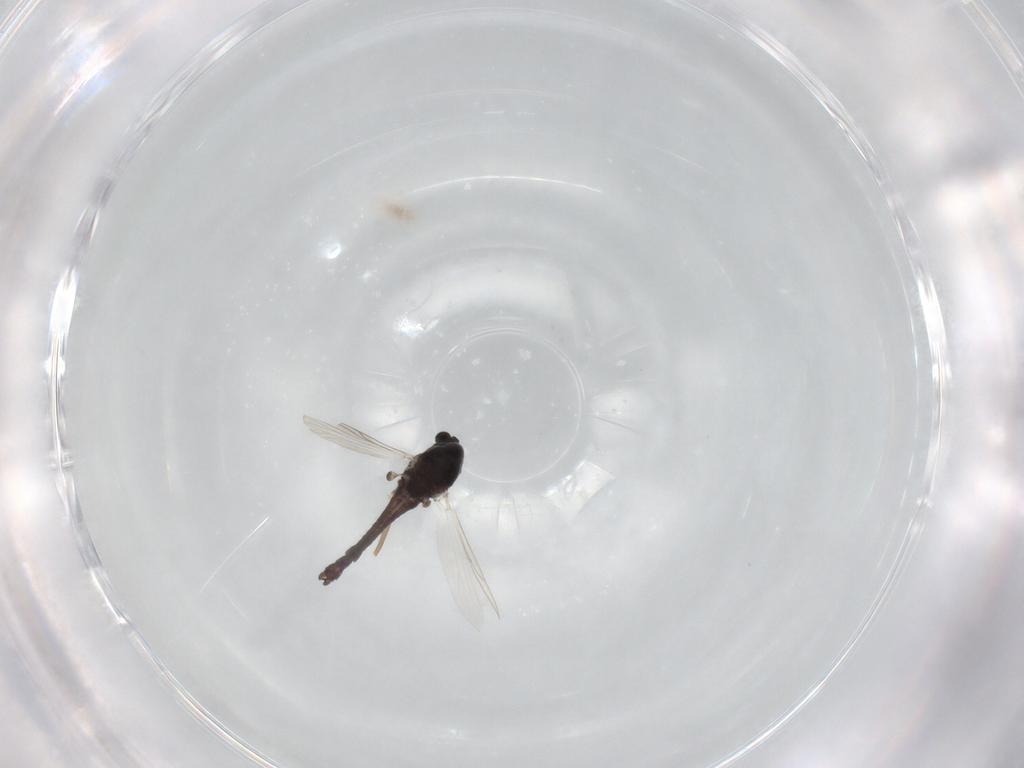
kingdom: Animalia
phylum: Arthropoda
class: Insecta
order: Diptera
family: Chironomidae
